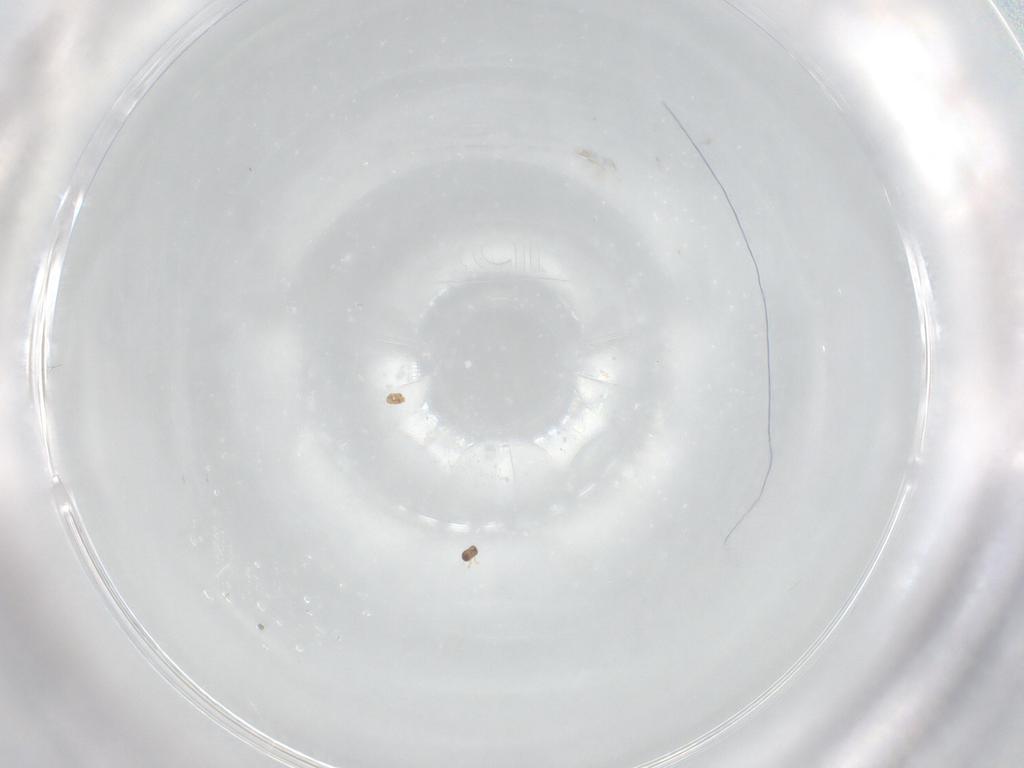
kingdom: Animalia
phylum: Arthropoda
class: Insecta
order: Hymenoptera
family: Mymaridae
